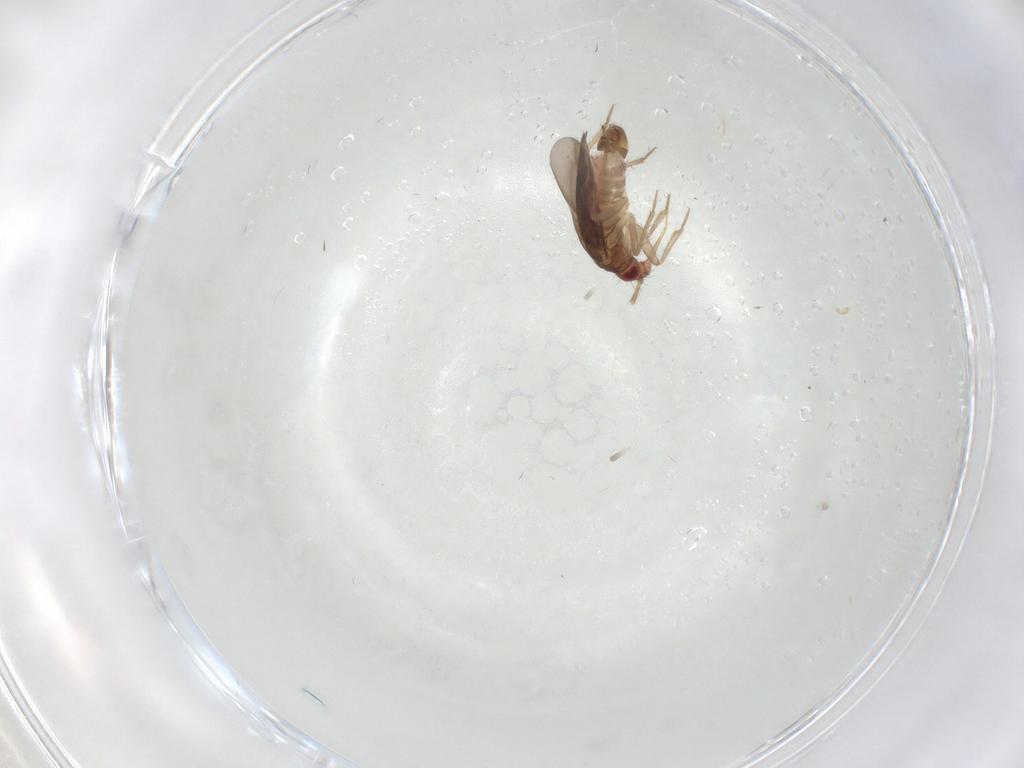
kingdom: Animalia
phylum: Arthropoda
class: Insecta
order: Hemiptera
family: Ceratocombidae
